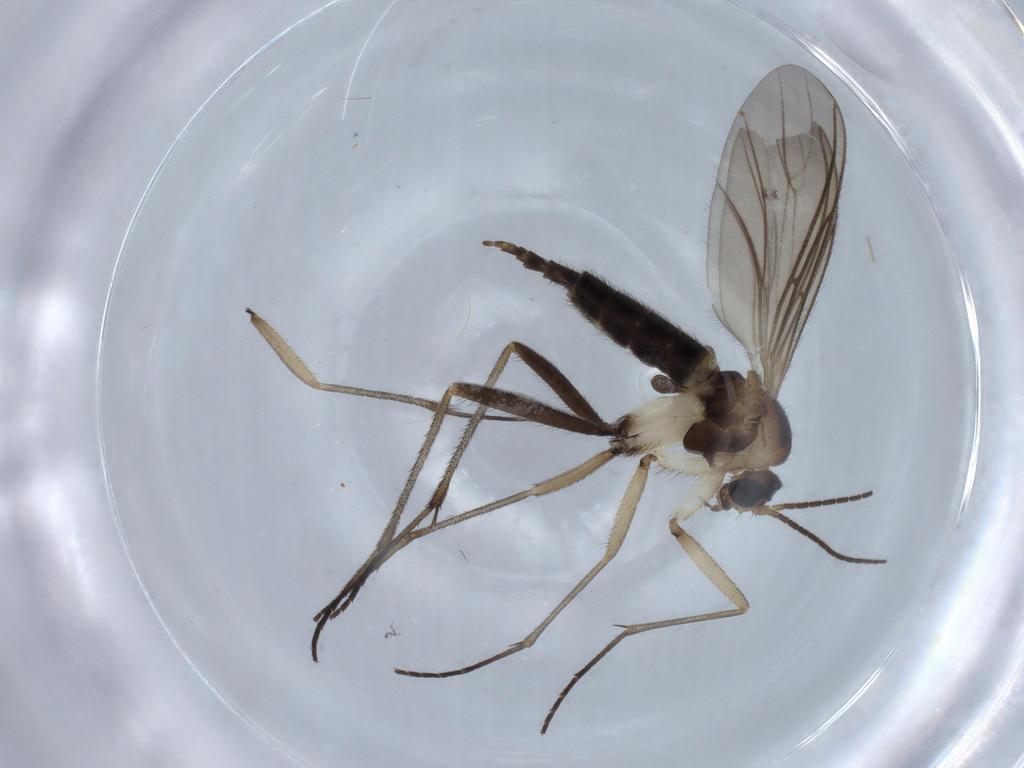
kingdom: Animalia
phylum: Arthropoda
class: Insecta
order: Diptera
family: Sciaridae
